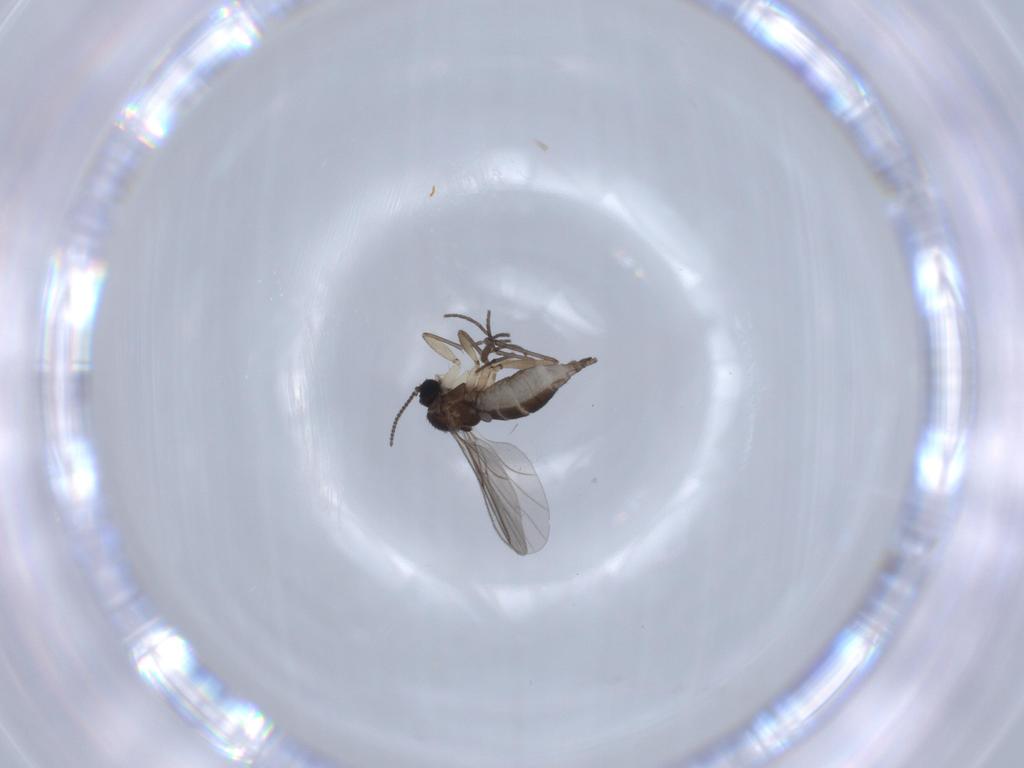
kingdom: Animalia
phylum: Arthropoda
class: Insecta
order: Diptera
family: Sciaridae
